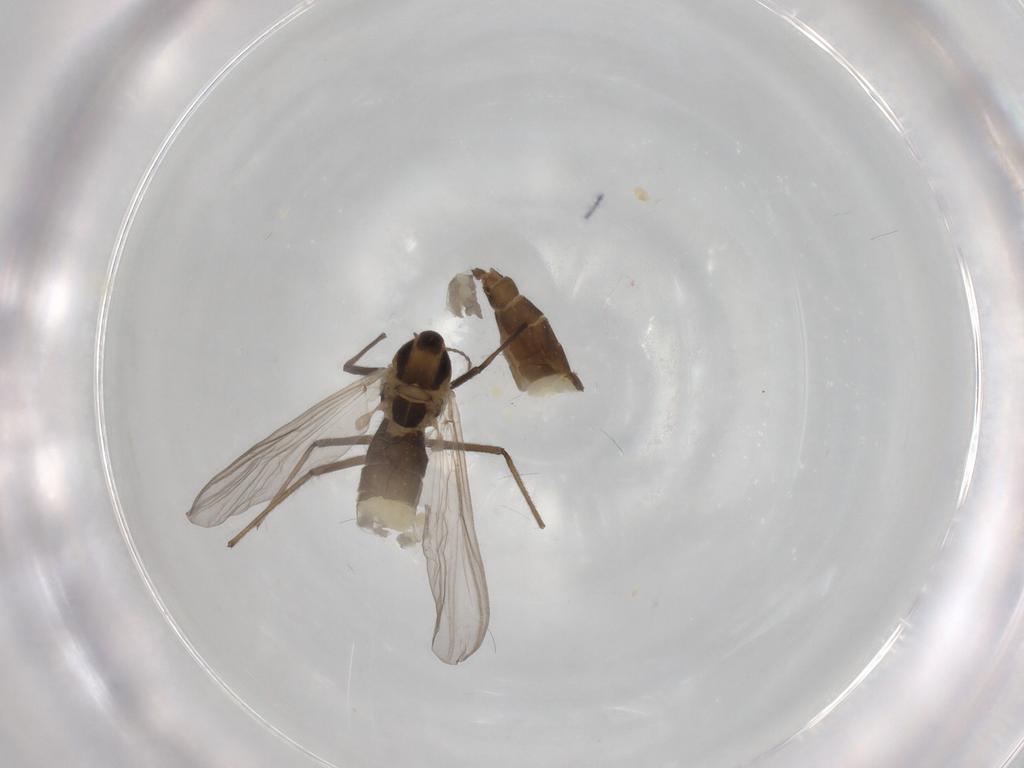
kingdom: Animalia
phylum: Arthropoda
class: Insecta
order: Diptera
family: Chironomidae
